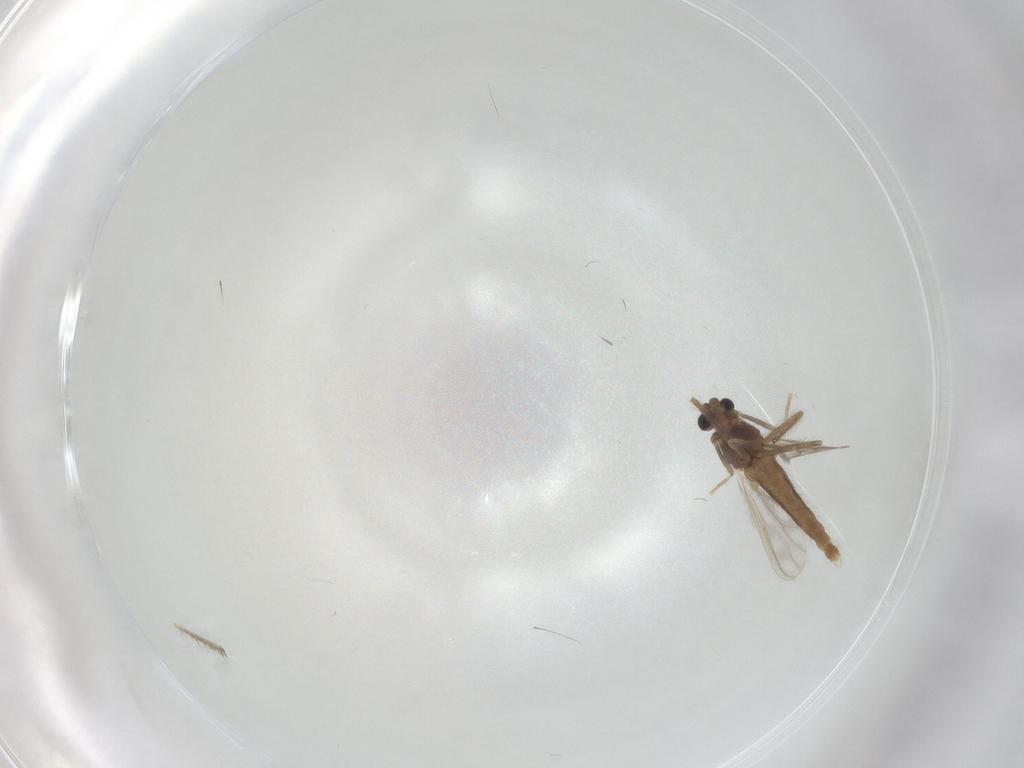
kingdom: Animalia
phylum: Arthropoda
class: Insecta
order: Diptera
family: Chironomidae
